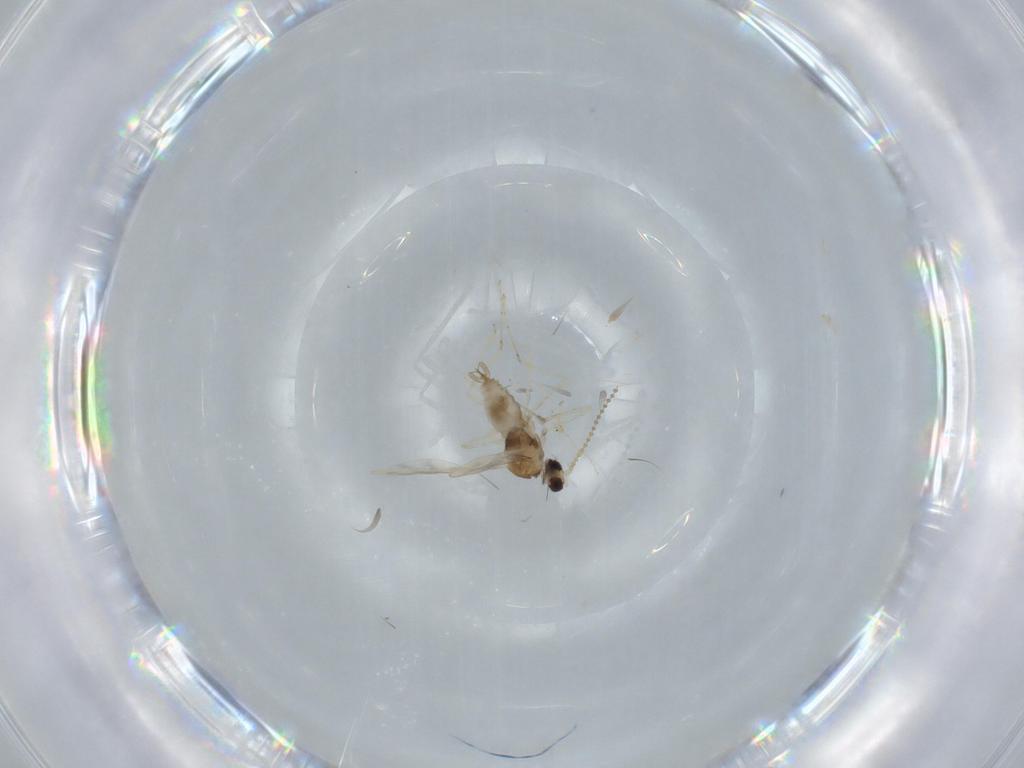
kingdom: Animalia
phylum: Arthropoda
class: Insecta
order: Diptera
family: Cecidomyiidae
